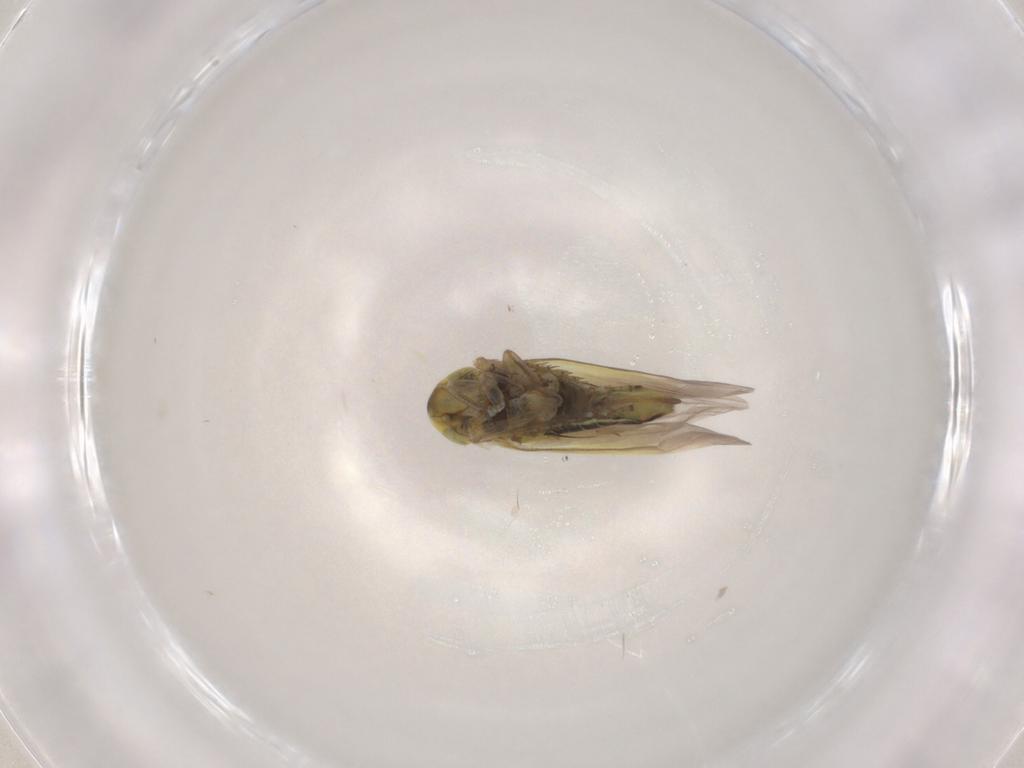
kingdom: Animalia
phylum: Arthropoda
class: Insecta
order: Hemiptera
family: Cicadellidae
